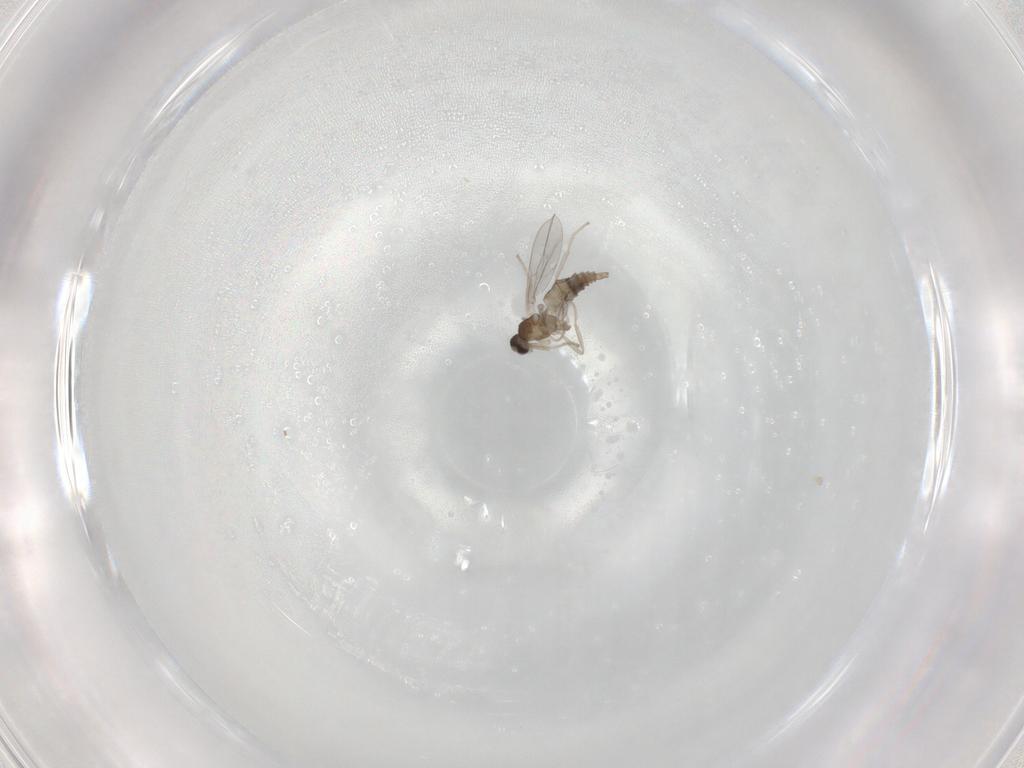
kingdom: Animalia
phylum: Arthropoda
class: Insecta
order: Diptera
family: Cecidomyiidae
